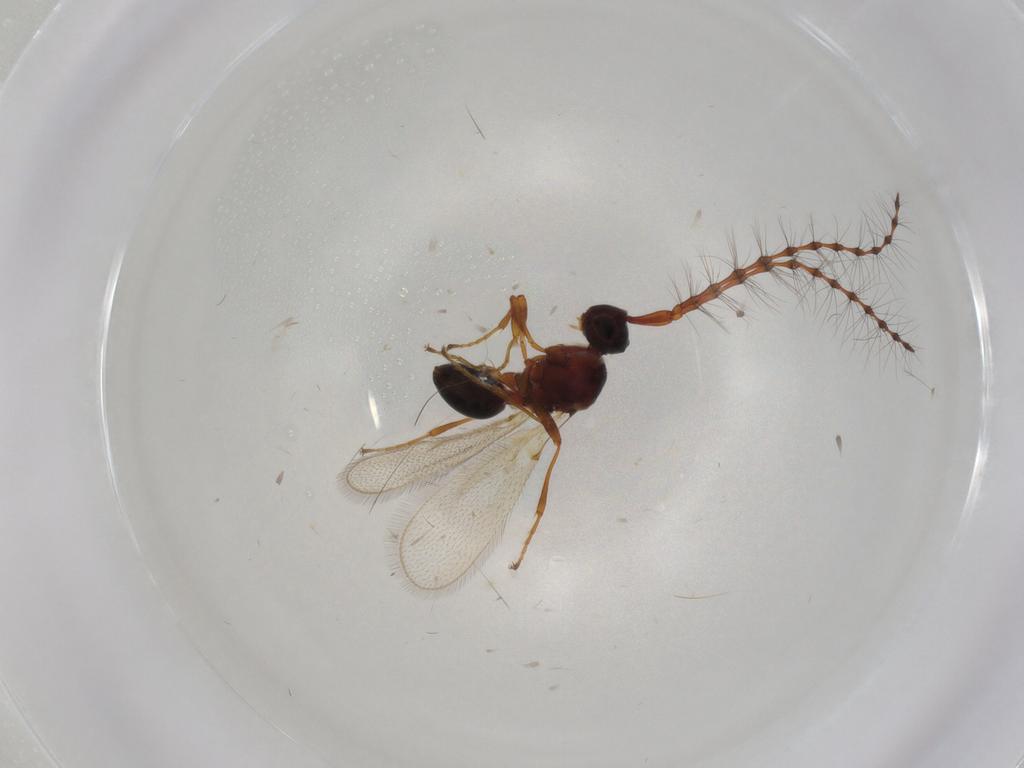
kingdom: Animalia
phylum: Arthropoda
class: Insecta
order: Hymenoptera
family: Diapriidae
